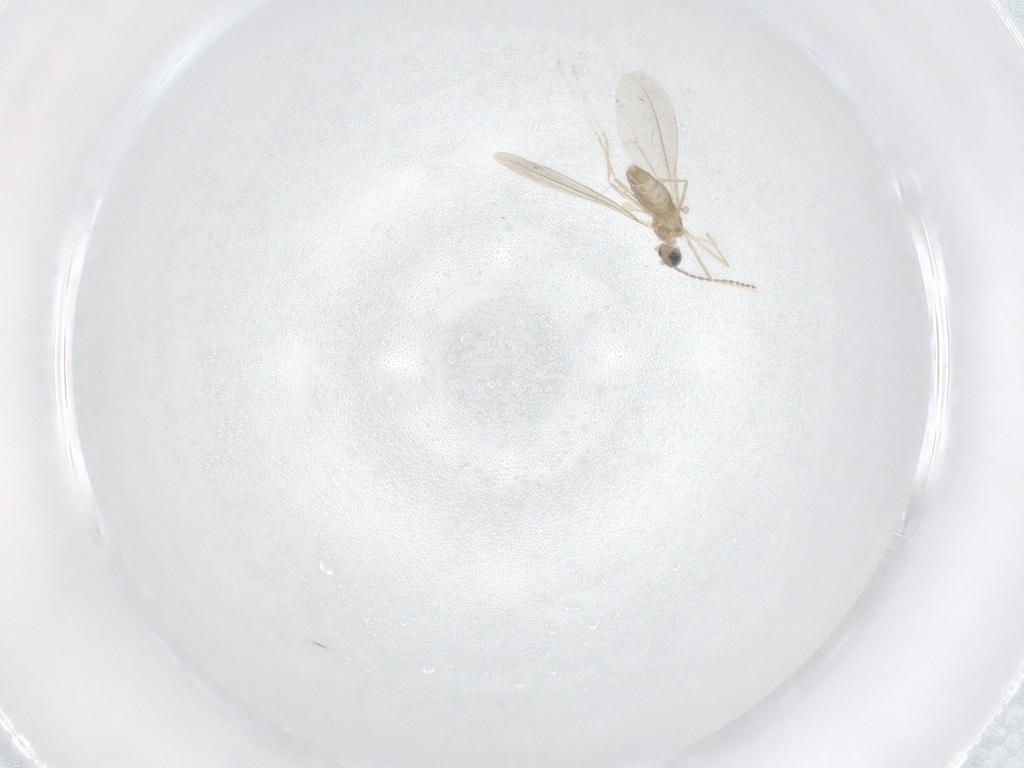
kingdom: Animalia
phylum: Arthropoda
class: Insecta
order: Diptera
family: Cecidomyiidae
